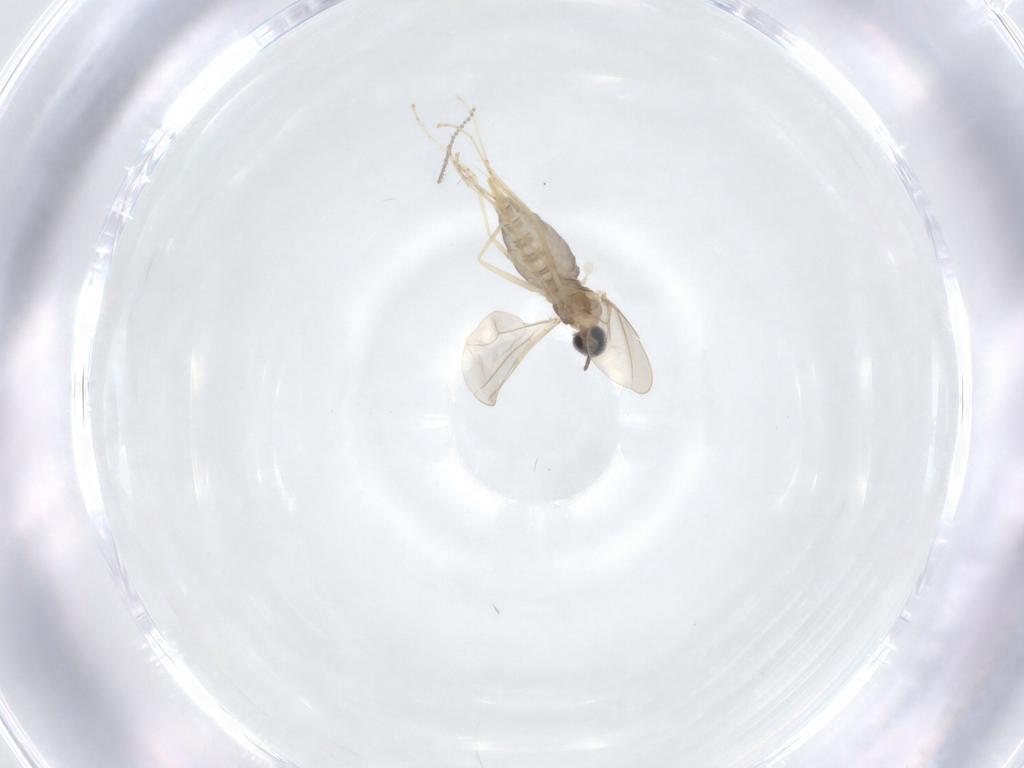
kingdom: Animalia
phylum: Arthropoda
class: Insecta
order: Diptera
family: Cecidomyiidae
